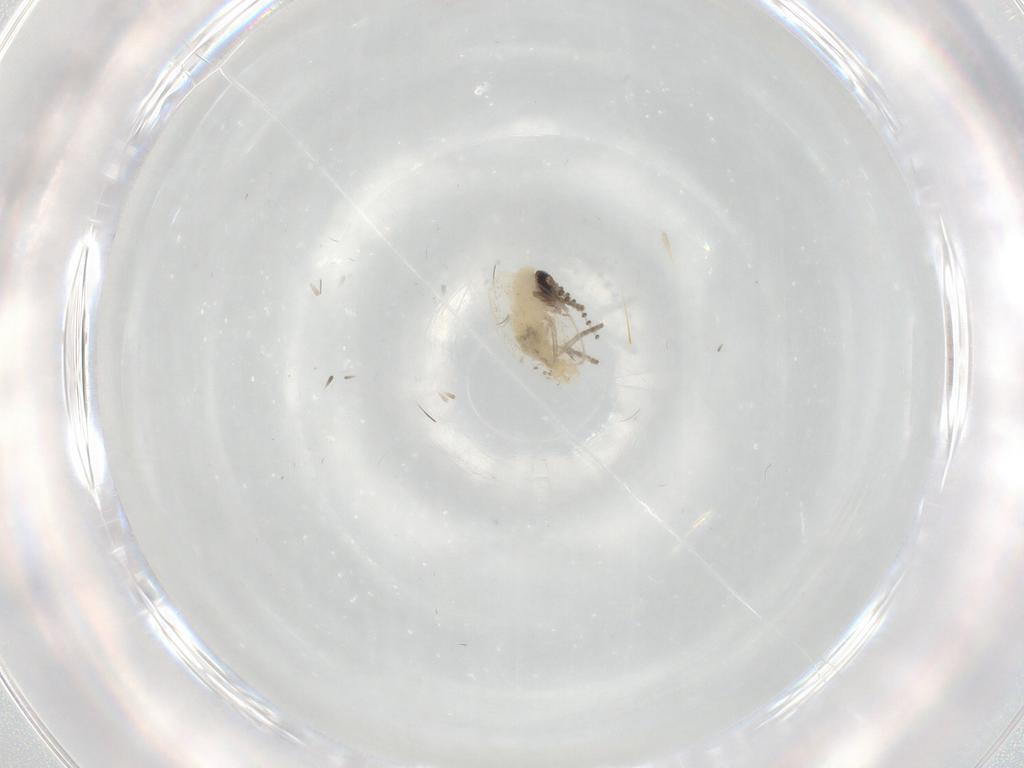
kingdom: Animalia
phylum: Arthropoda
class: Insecta
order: Diptera
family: Psychodidae
